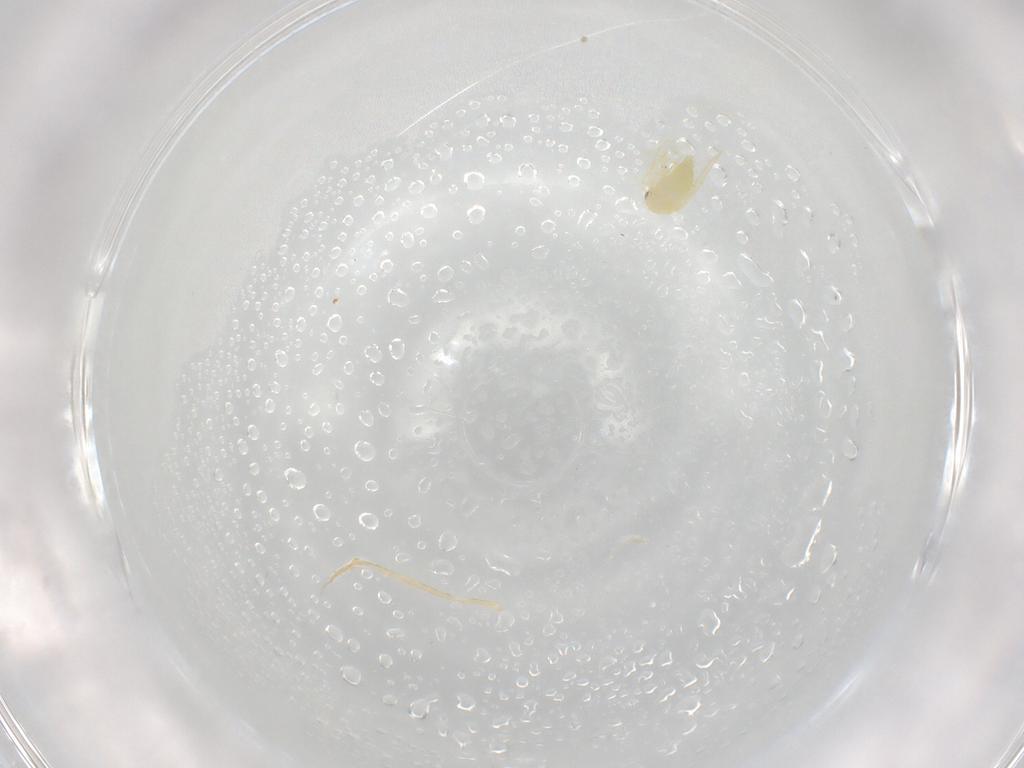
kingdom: Animalia
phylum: Arthropoda
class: Insecta
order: Hemiptera
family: Aleyrodidae
